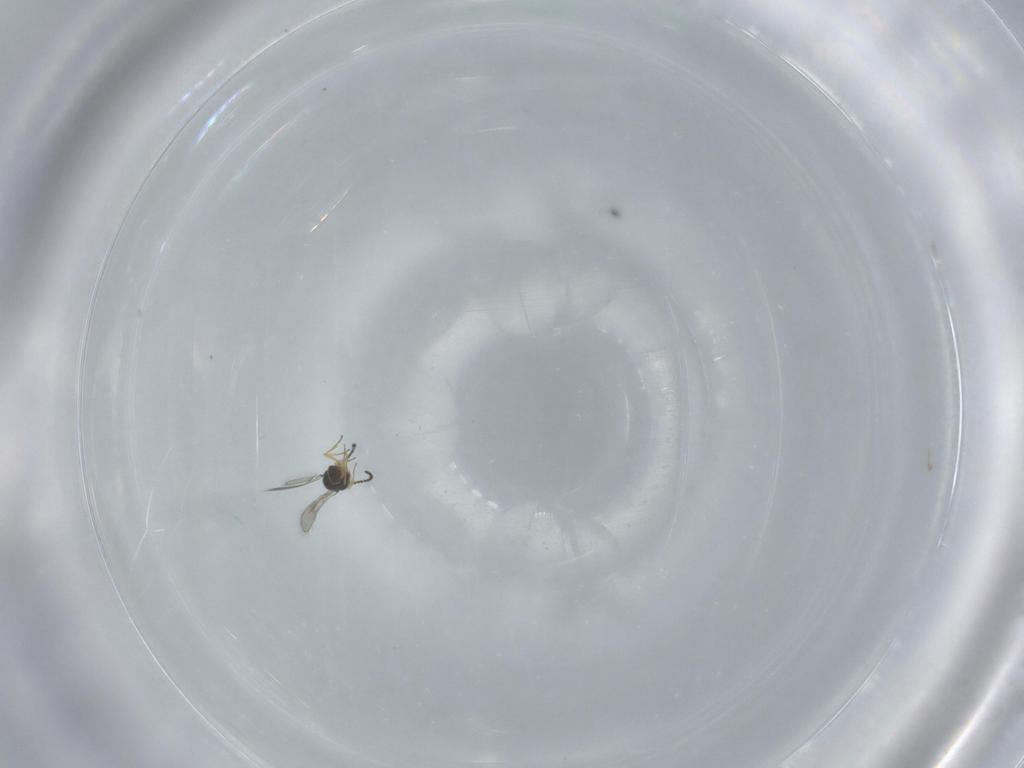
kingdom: Animalia
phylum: Arthropoda
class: Insecta
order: Hymenoptera
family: Scelionidae
